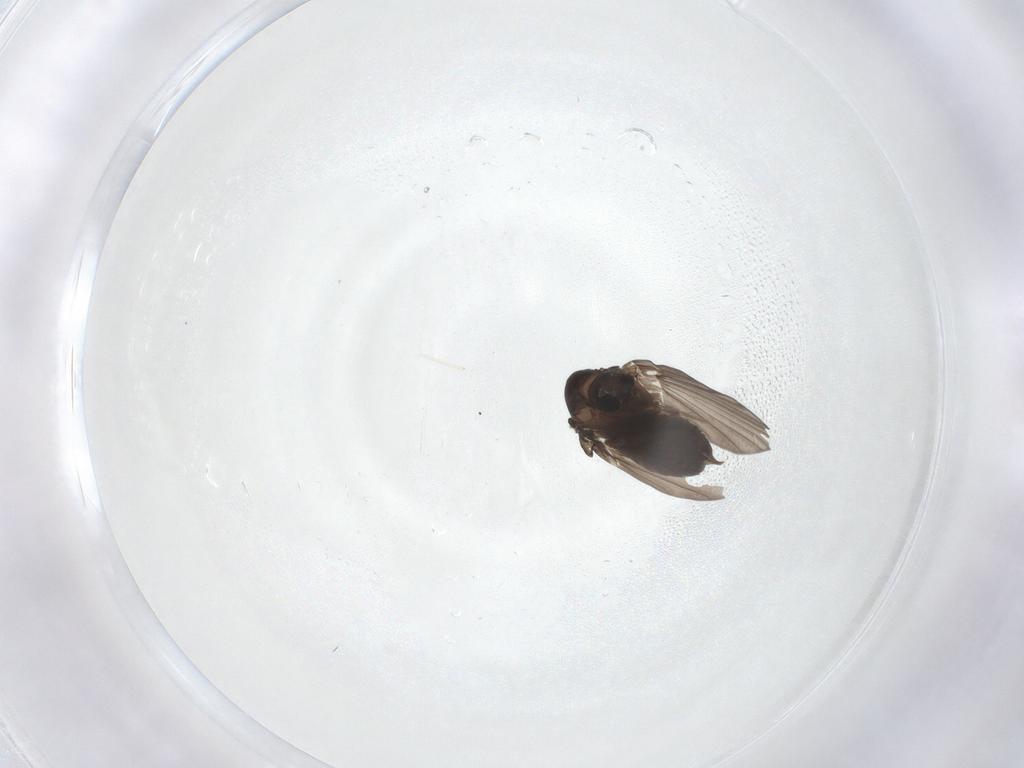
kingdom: Animalia
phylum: Arthropoda
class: Insecta
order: Diptera
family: Psychodidae
